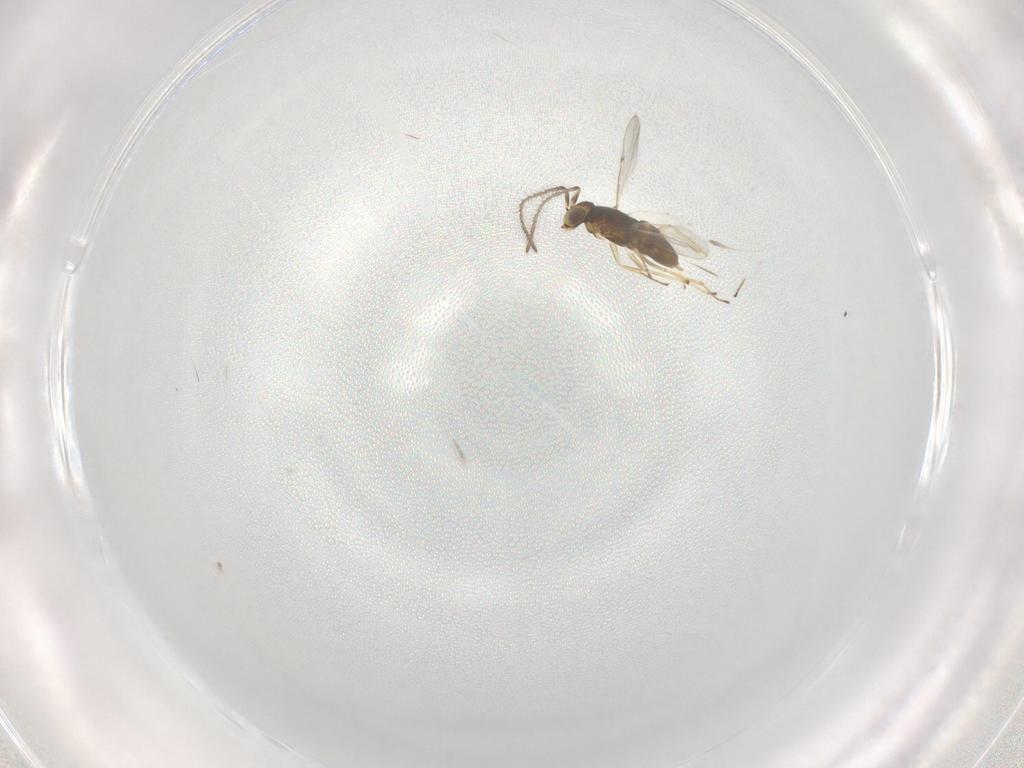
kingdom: Animalia
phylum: Arthropoda
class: Insecta
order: Hymenoptera
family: Encyrtidae
